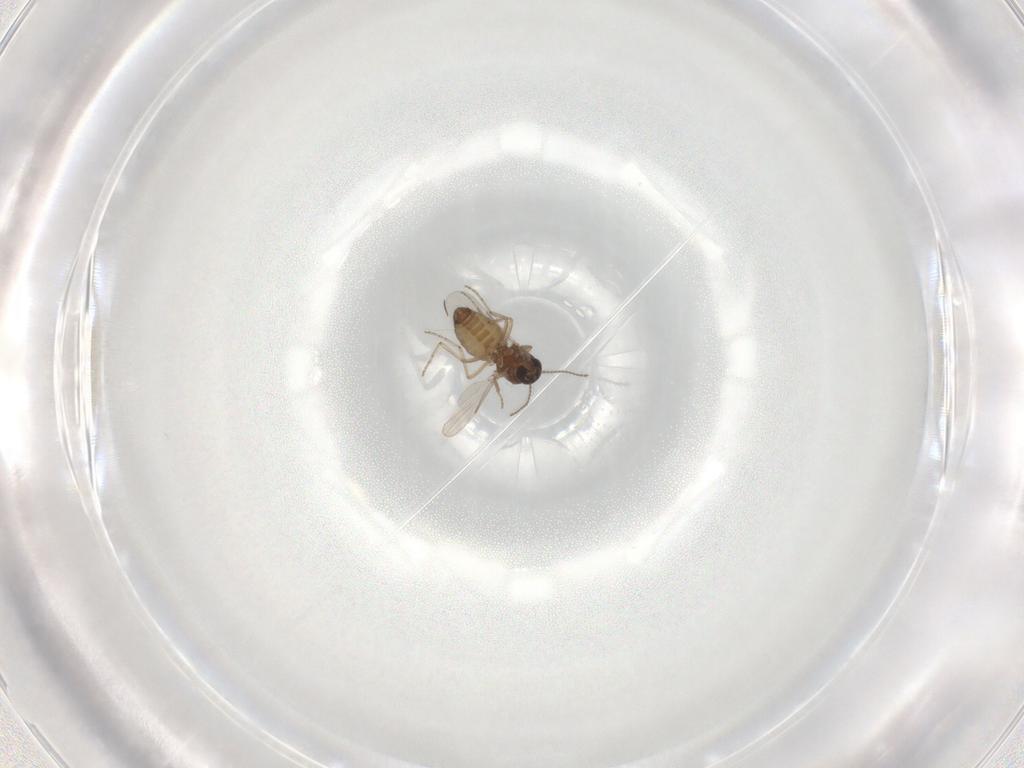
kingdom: Animalia
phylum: Arthropoda
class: Insecta
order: Diptera
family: Ceratopogonidae
